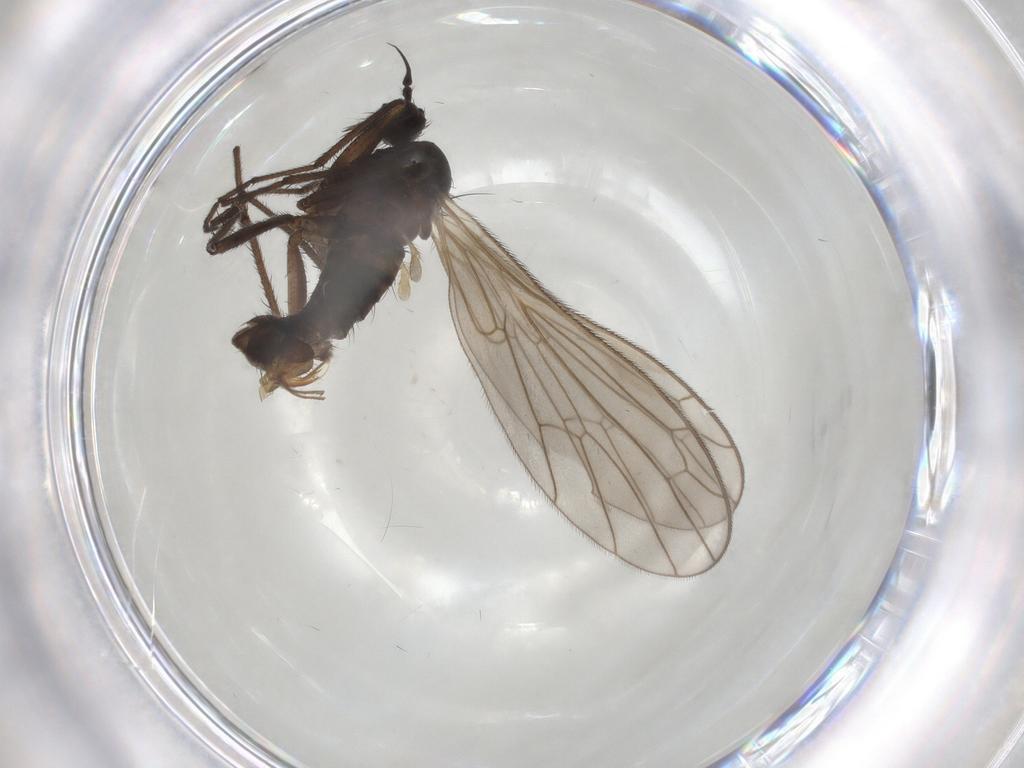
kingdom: Animalia
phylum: Arthropoda
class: Insecta
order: Diptera
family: Empididae
